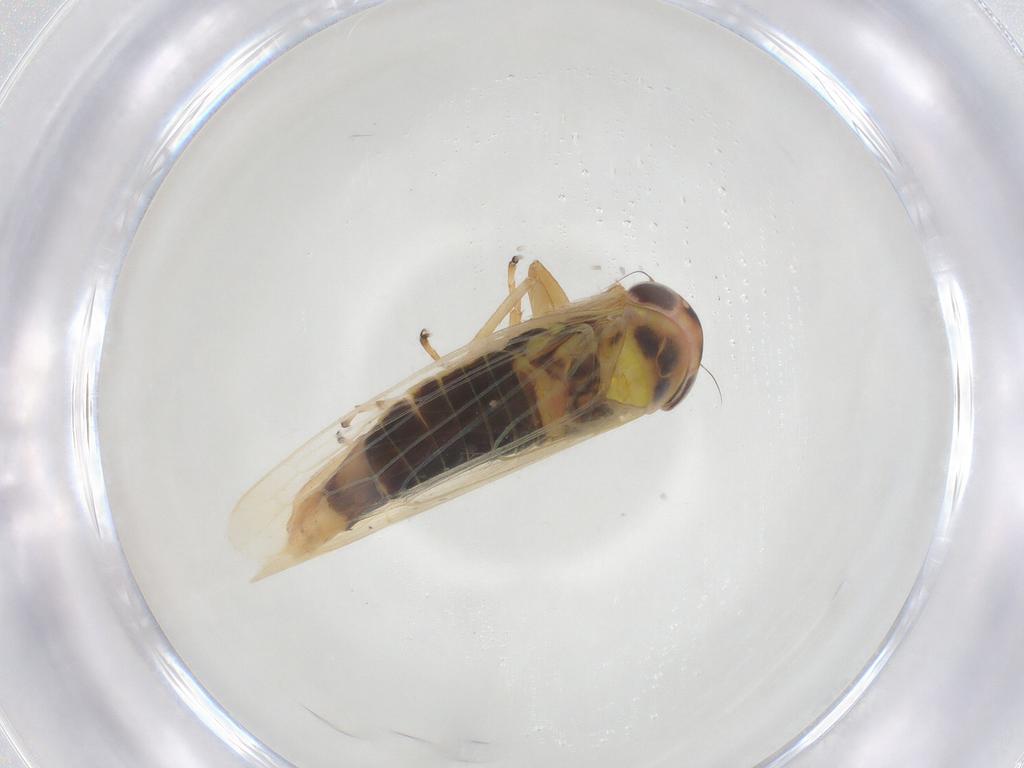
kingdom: Animalia
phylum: Arthropoda
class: Insecta
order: Hemiptera
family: Cicadellidae
